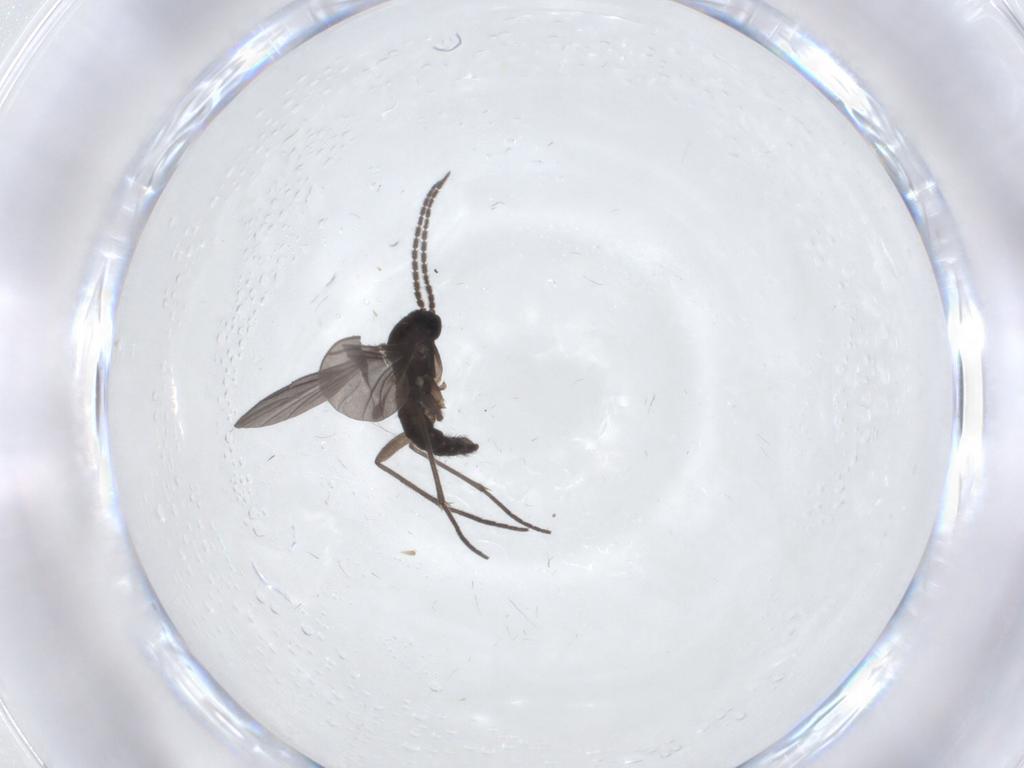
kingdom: Animalia
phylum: Arthropoda
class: Insecta
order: Diptera
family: Sciaridae
